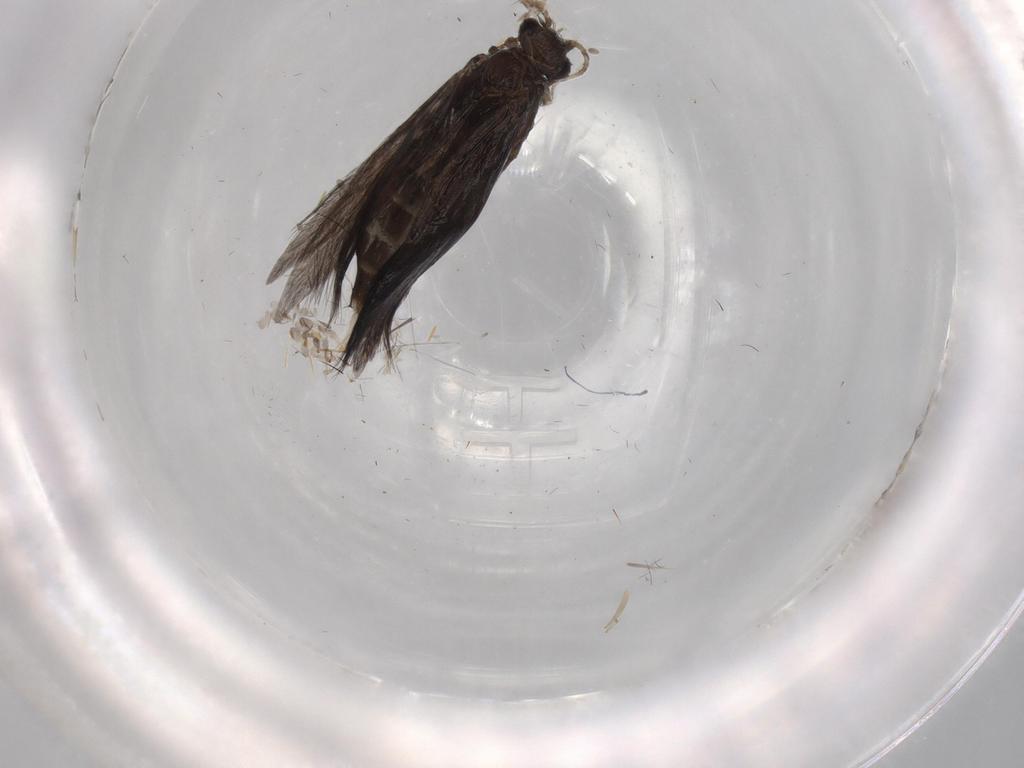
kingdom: Animalia
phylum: Arthropoda
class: Insecta
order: Trichoptera
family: Hydroptilidae
